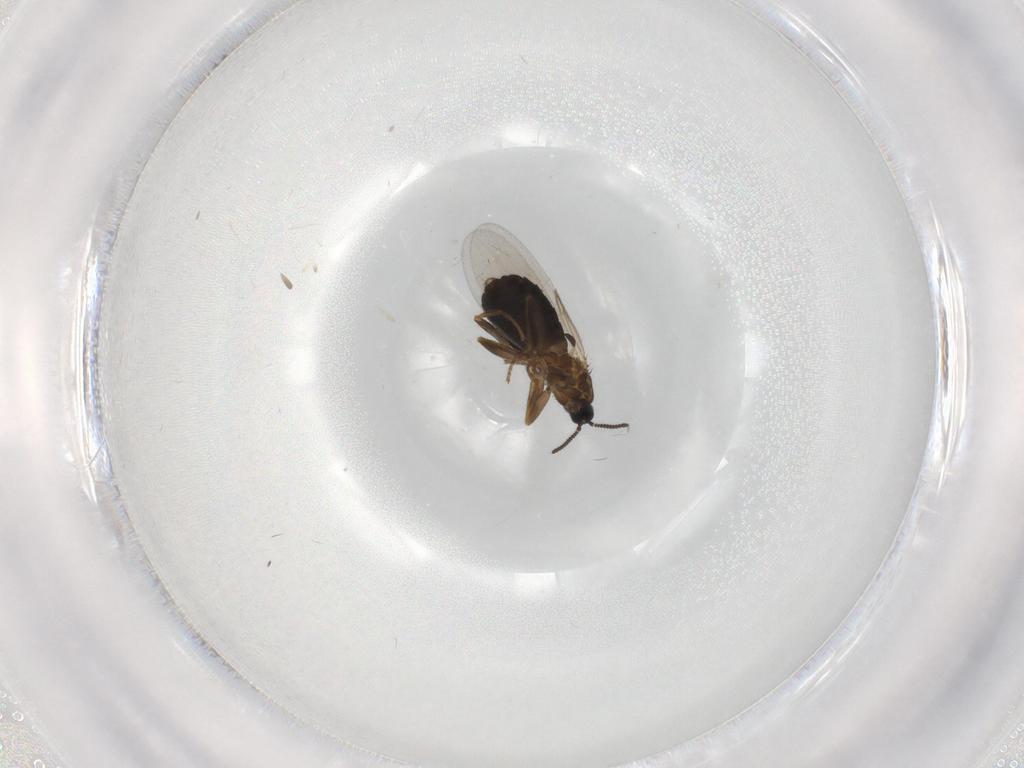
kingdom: Animalia
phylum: Arthropoda
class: Insecta
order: Diptera
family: Scatopsidae
